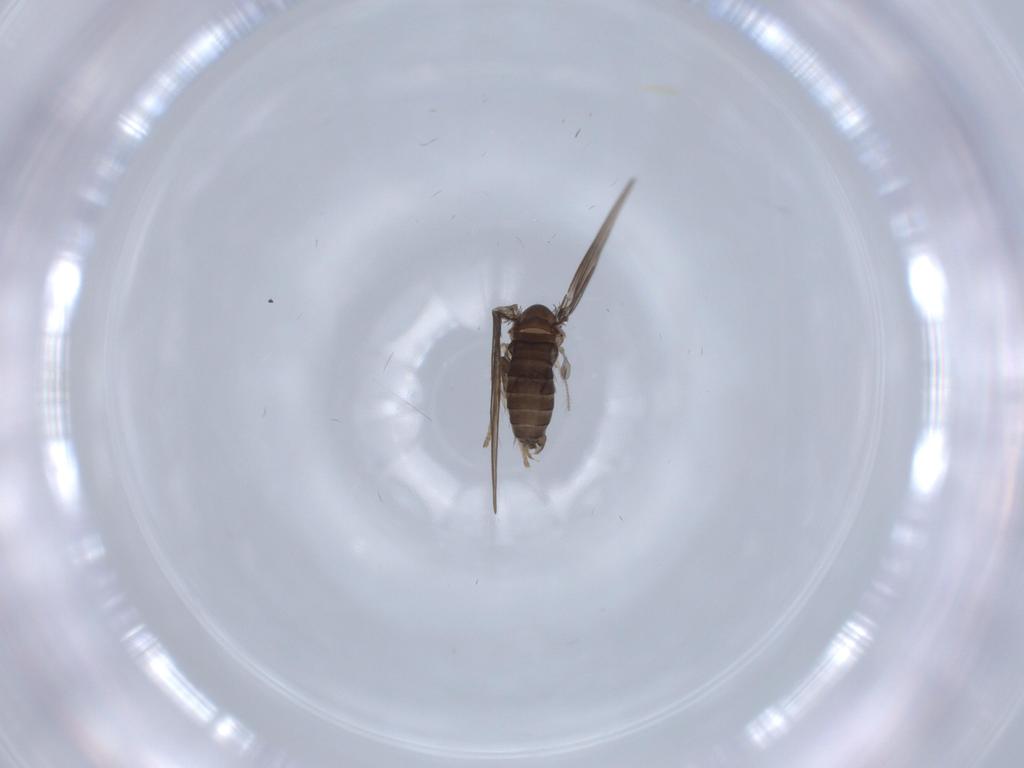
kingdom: Animalia
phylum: Arthropoda
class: Insecta
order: Diptera
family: Psychodidae
